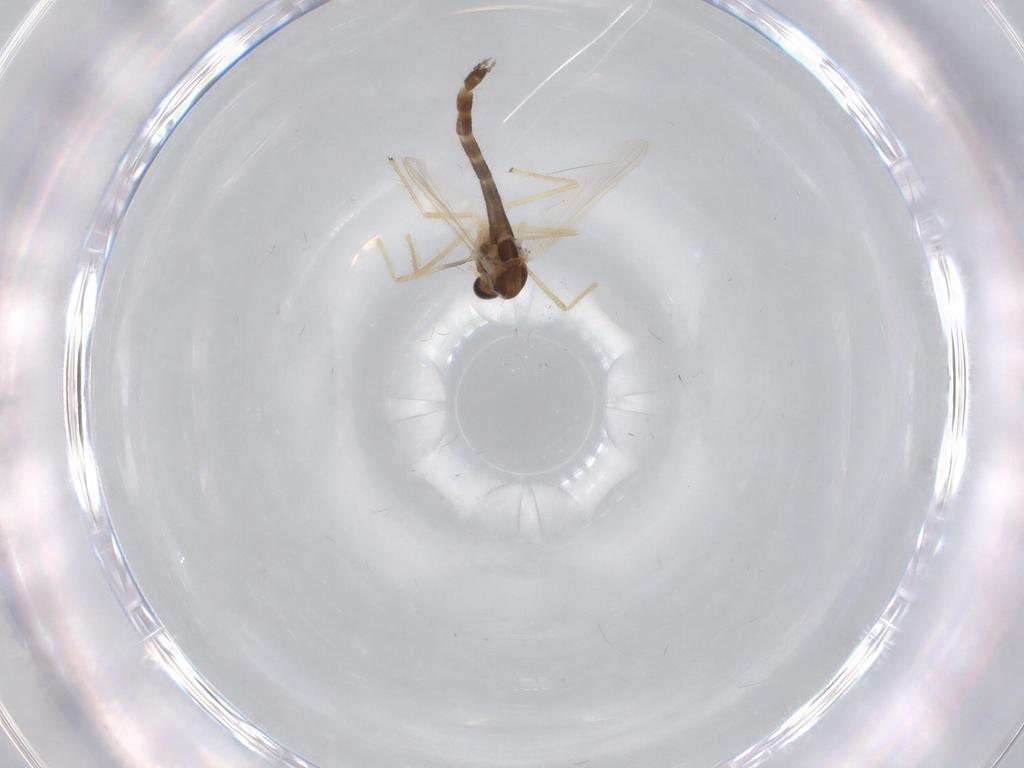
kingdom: Animalia
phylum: Arthropoda
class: Insecta
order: Diptera
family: Chironomidae
